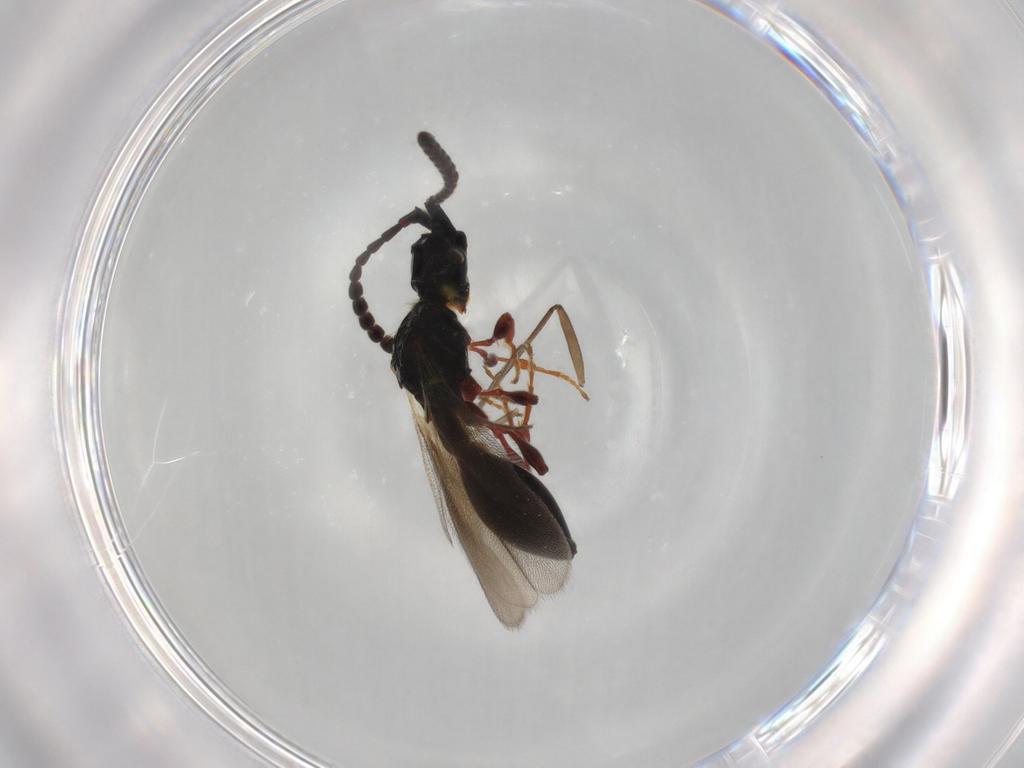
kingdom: Animalia
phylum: Arthropoda
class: Insecta
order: Hymenoptera
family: Diapriidae
